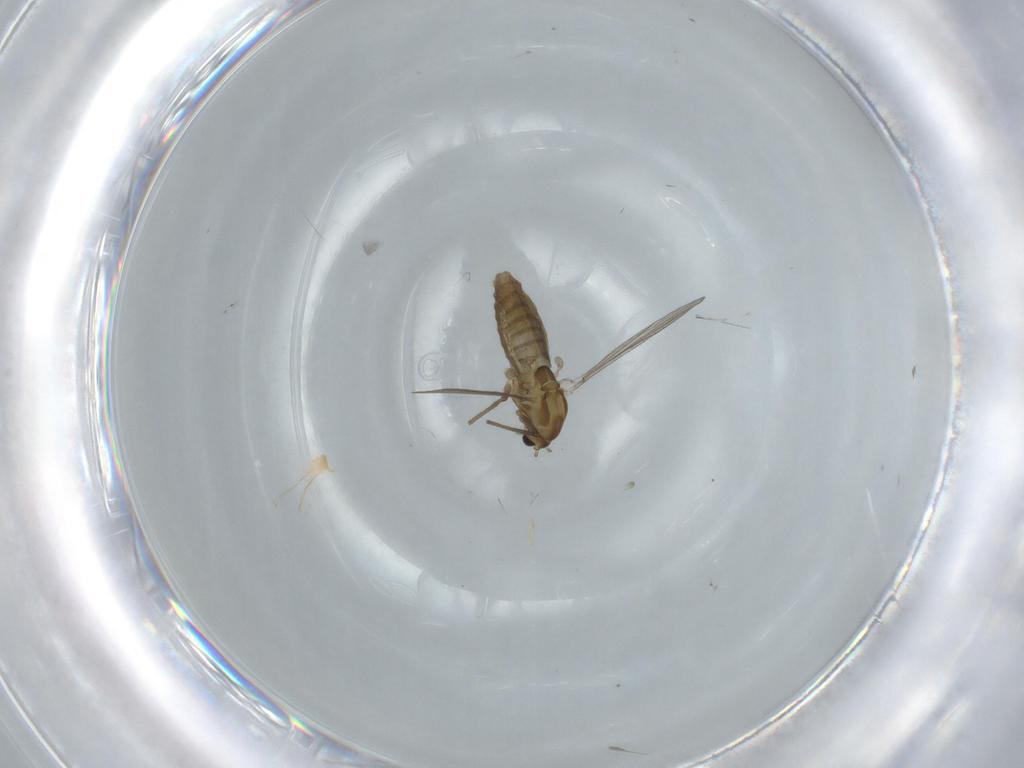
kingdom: Animalia
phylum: Arthropoda
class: Insecta
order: Diptera
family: Chironomidae
